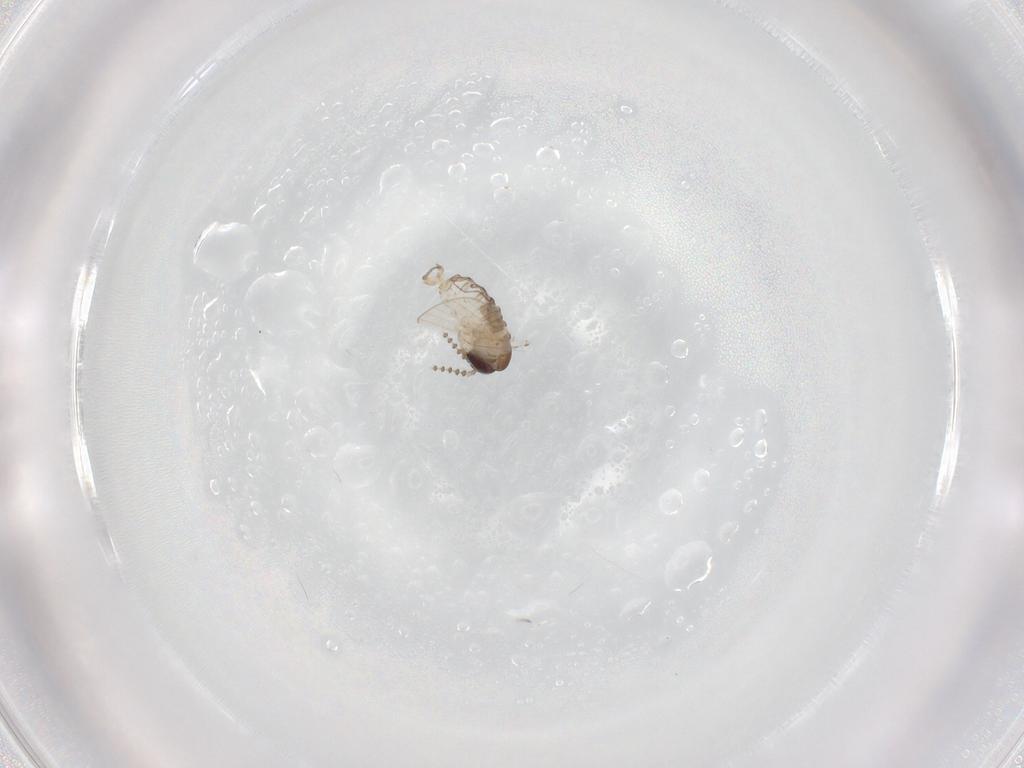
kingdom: Animalia
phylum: Arthropoda
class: Insecta
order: Diptera
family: Psychodidae
